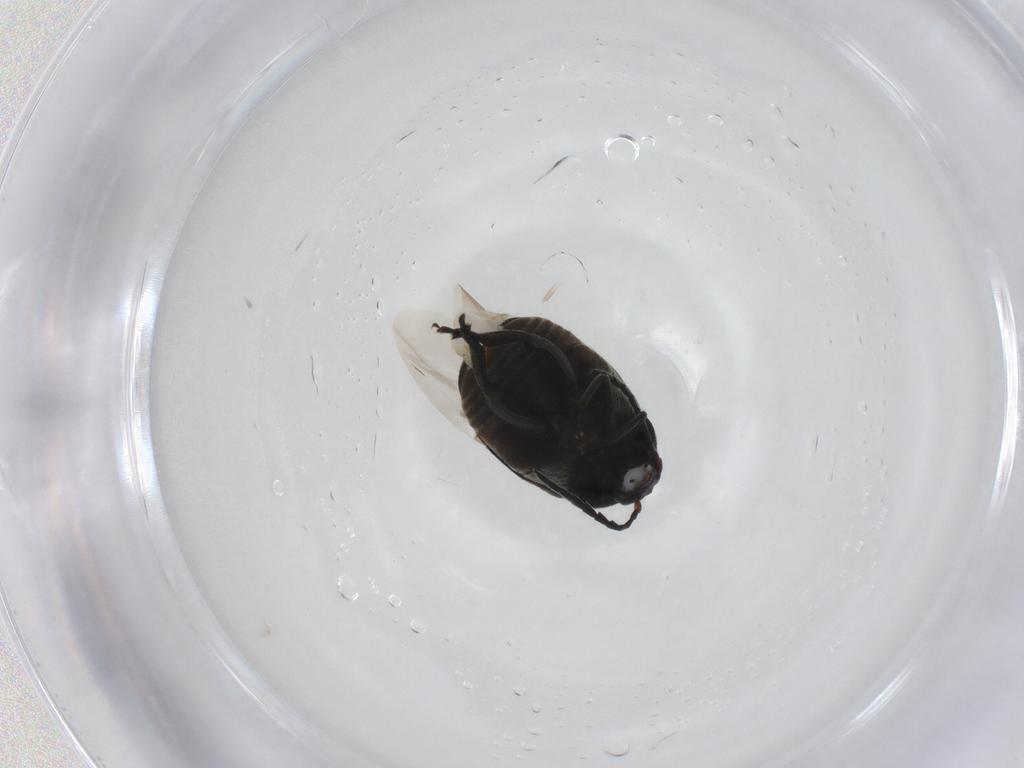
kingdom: Animalia
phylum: Arthropoda
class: Insecta
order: Coleoptera
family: Chrysomelidae
